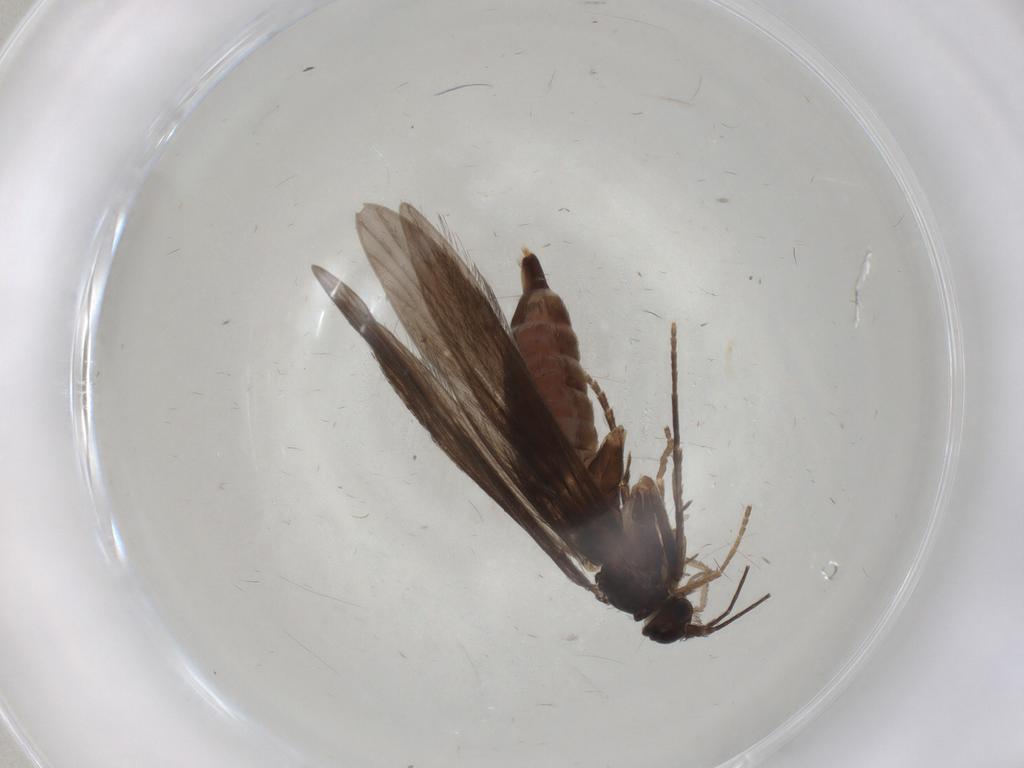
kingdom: Animalia
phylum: Arthropoda
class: Insecta
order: Trichoptera
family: Xiphocentronidae
